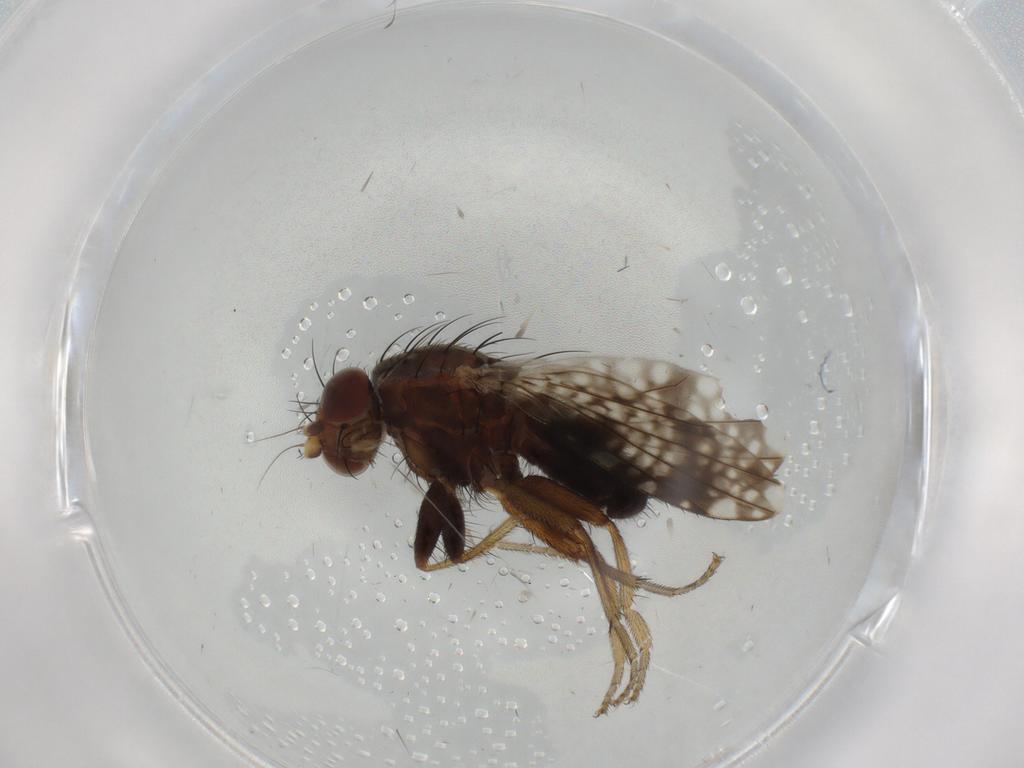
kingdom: Animalia
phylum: Arthropoda
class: Insecta
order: Diptera
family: Tephritidae
